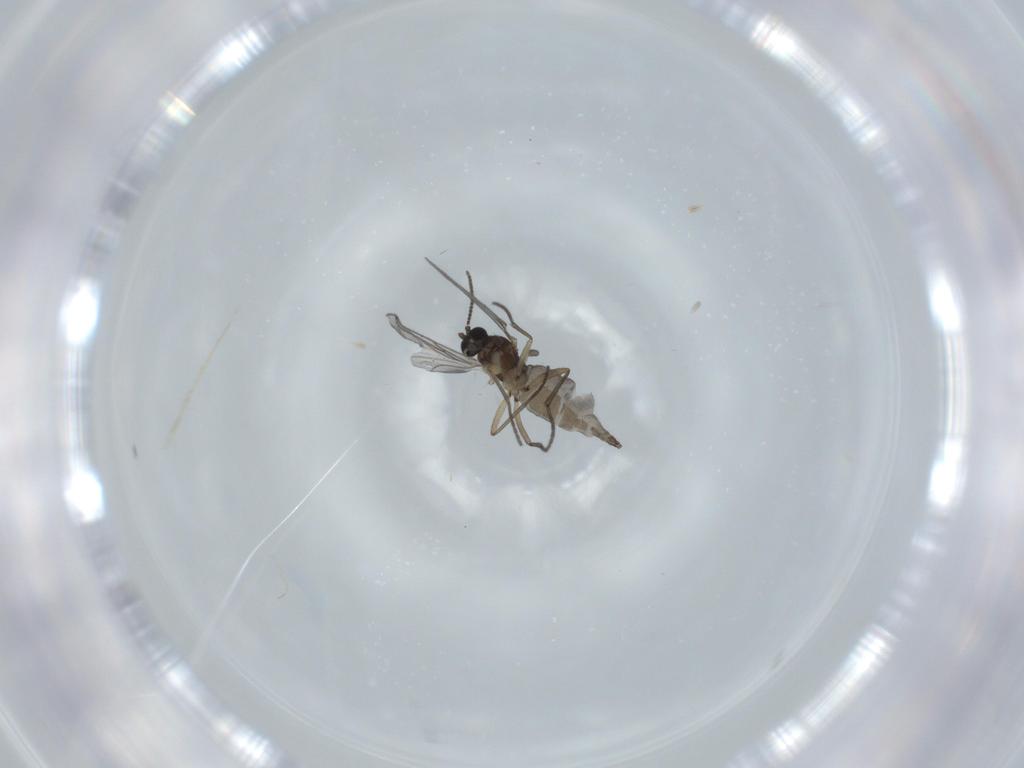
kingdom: Animalia
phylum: Arthropoda
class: Insecta
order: Diptera
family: Sciaridae
